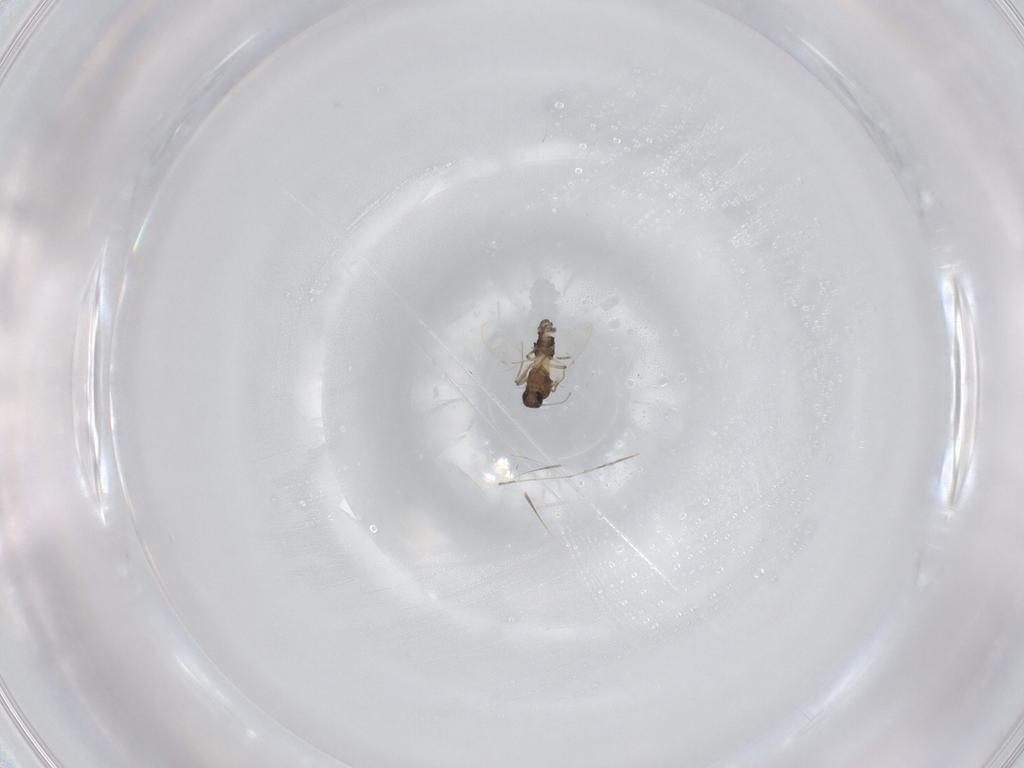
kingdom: Animalia
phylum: Arthropoda
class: Insecta
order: Diptera
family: Ceratopogonidae
